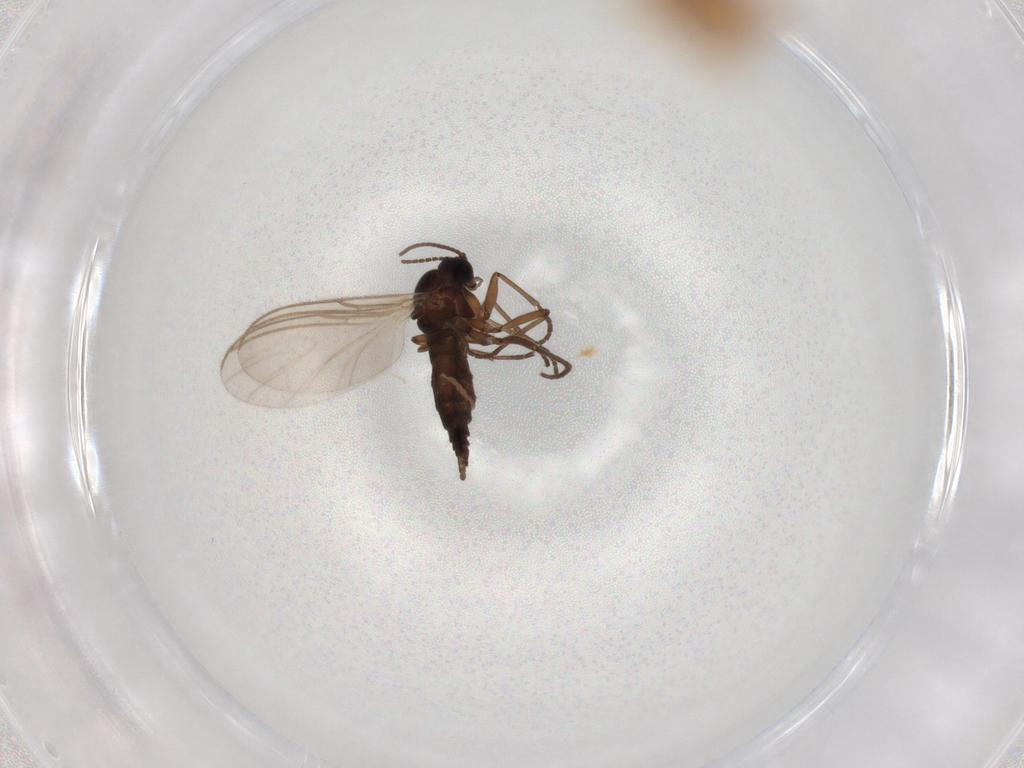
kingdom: Animalia
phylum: Arthropoda
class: Insecta
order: Diptera
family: Sciaridae
